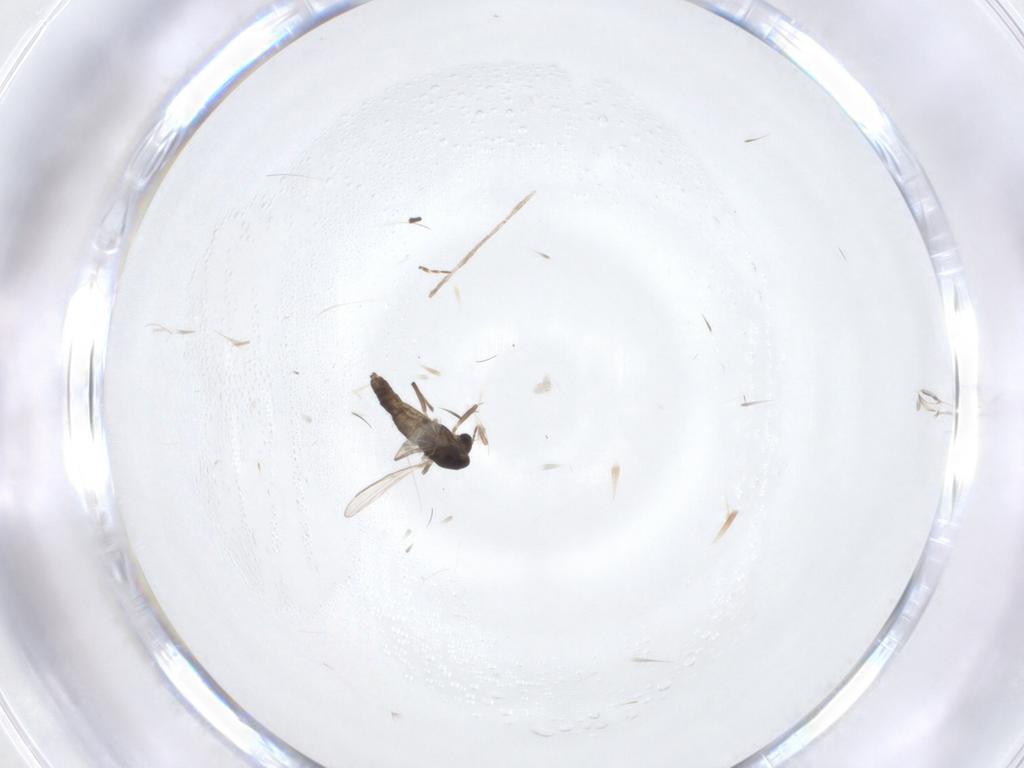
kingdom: Animalia
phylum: Arthropoda
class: Insecta
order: Diptera
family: Chironomidae
